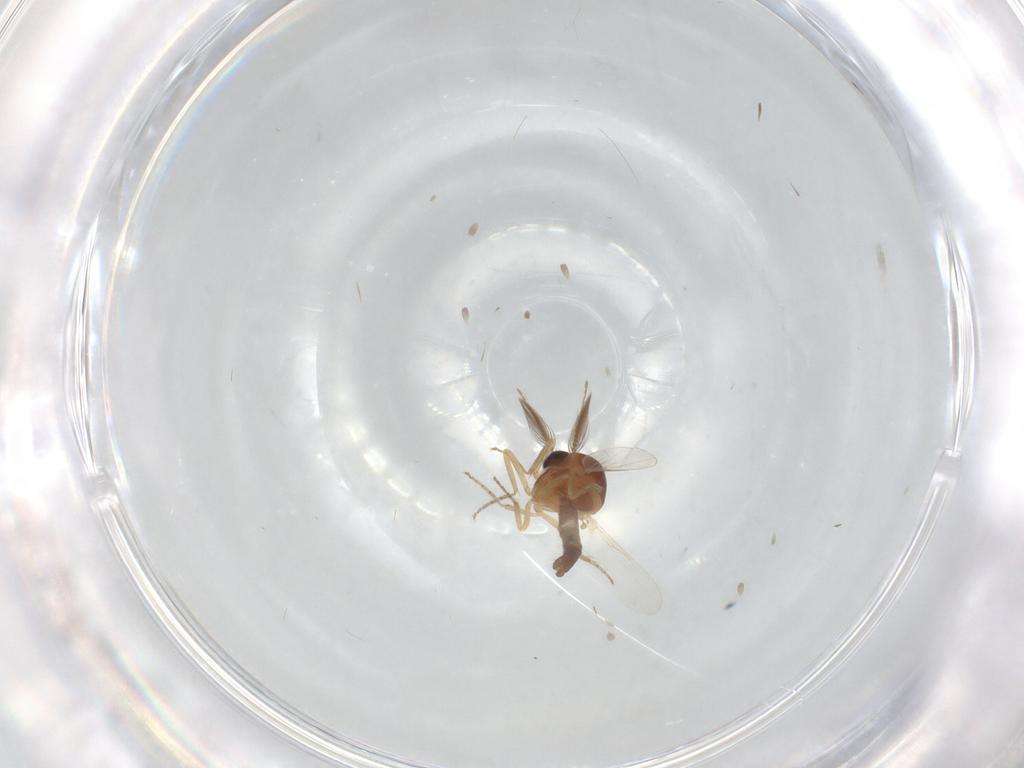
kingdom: Animalia
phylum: Arthropoda
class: Insecta
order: Diptera
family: Ceratopogonidae
